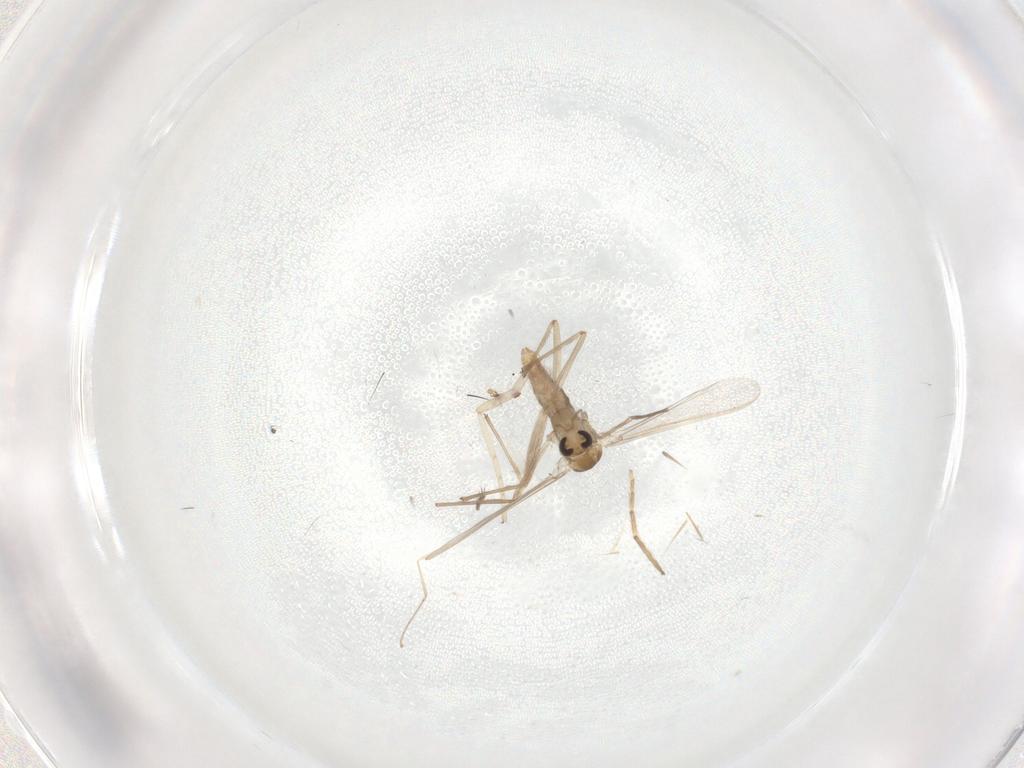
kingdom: Animalia
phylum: Arthropoda
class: Insecta
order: Diptera
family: Chironomidae
